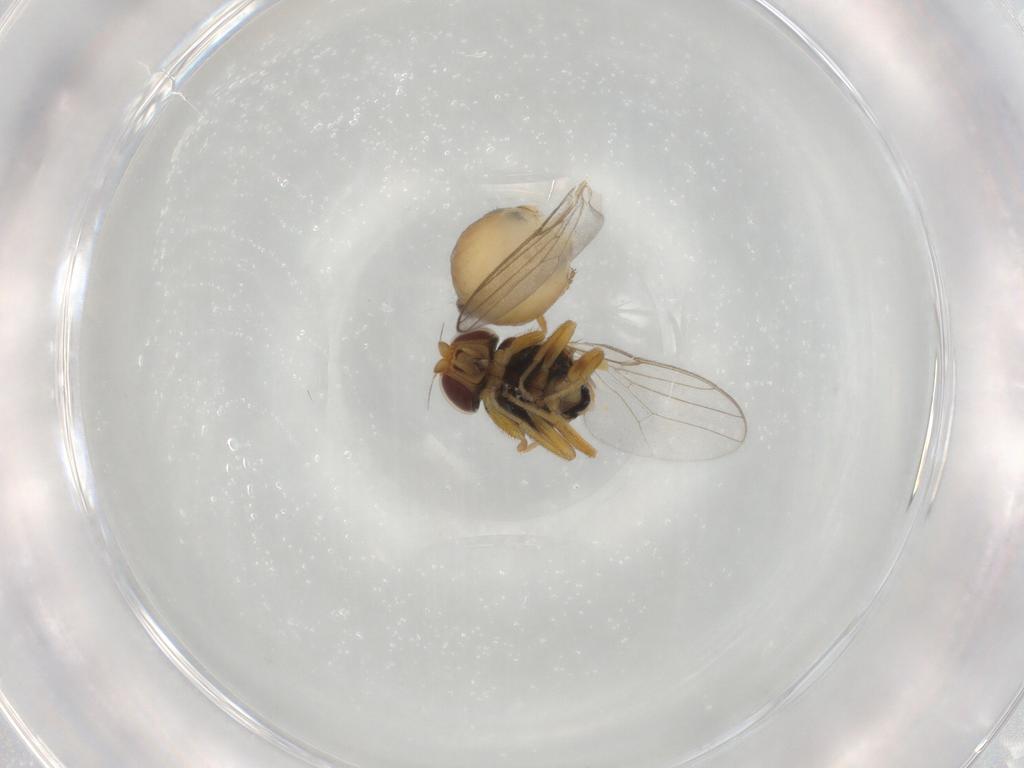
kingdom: Animalia
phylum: Arthropoda
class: Insecta
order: Diptera
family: Chloropidae
